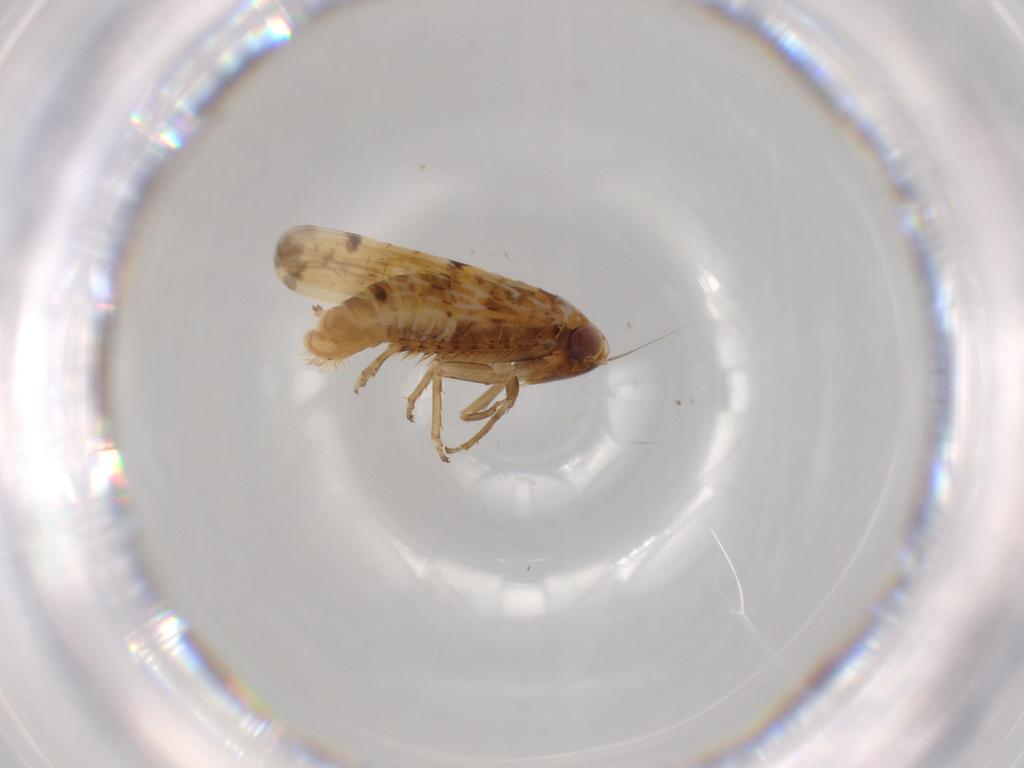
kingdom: Animalia
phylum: Arthropoda
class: Insecta
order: Hemiptera
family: Cicadellidae
